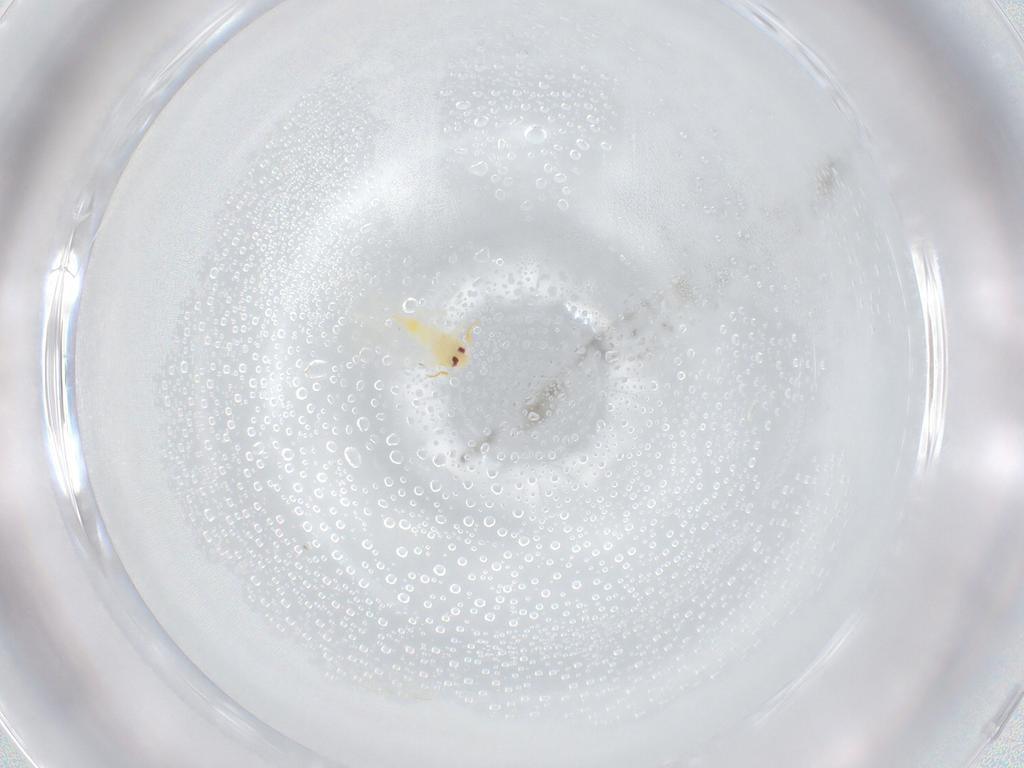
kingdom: Animalia
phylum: Arthropoda
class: Insecta
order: Hemiptera
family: Aleyrodidae
